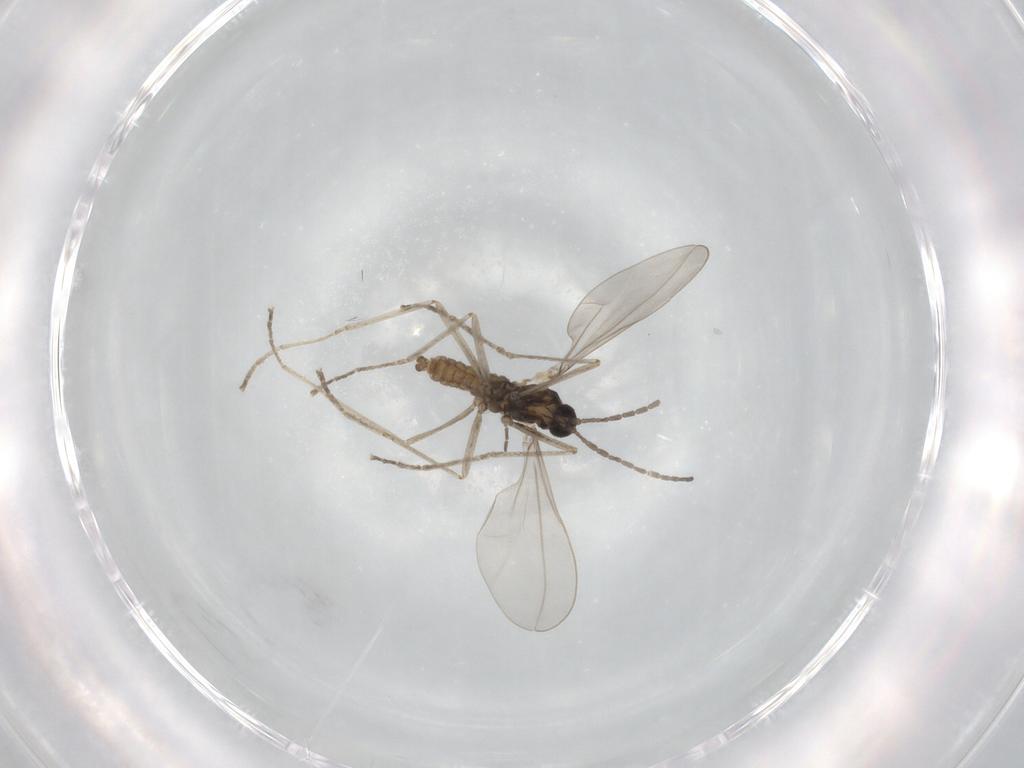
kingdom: Animalia
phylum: Arthropoda
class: Insecta
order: Diptera
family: Cecidomyiidae
